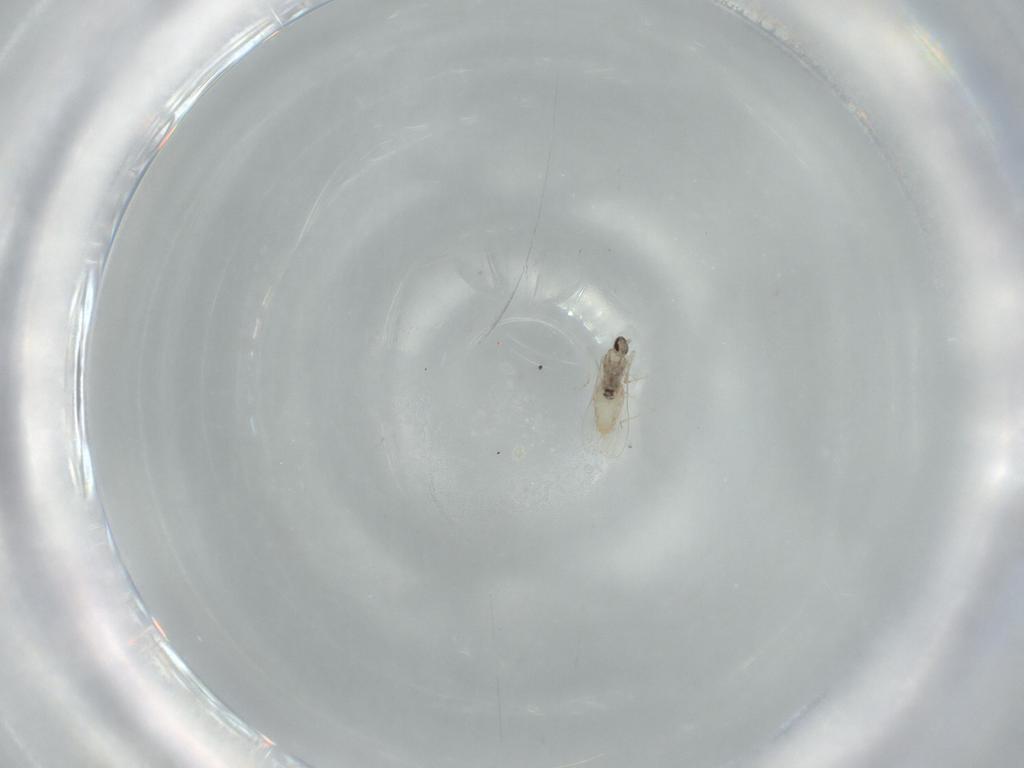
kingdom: Animalia
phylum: Arthropoda
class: Insecta
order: Diptera
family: Cecidomyiidae
